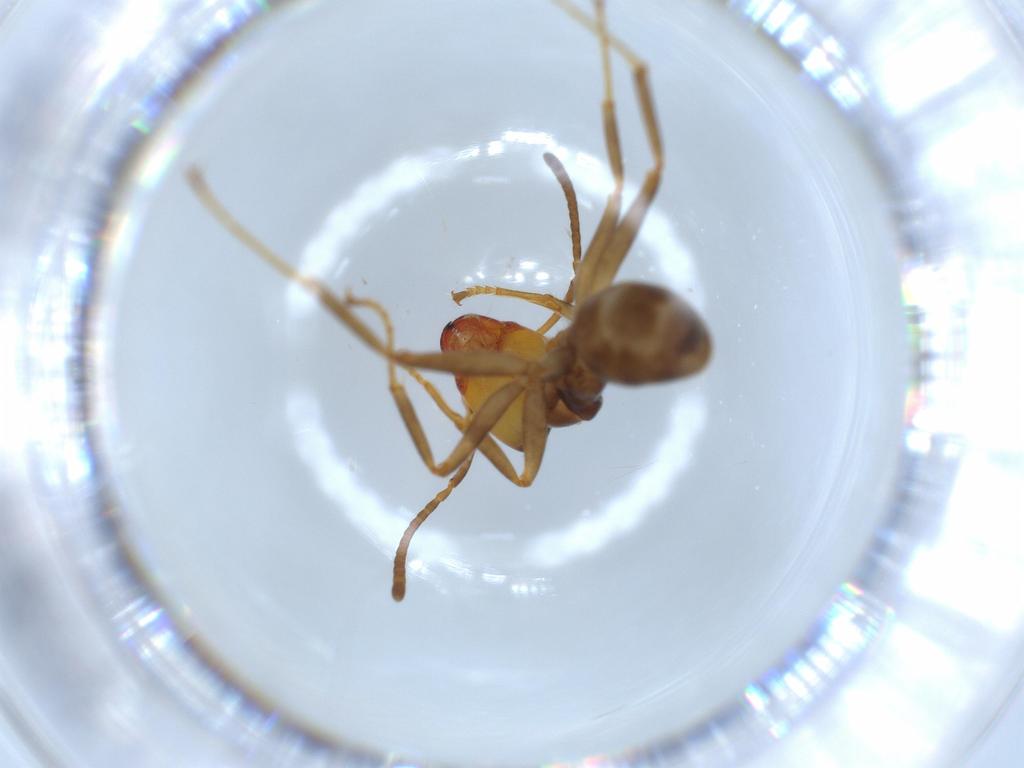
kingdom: Animalia
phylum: Arthropoda
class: Insecta
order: Hymenoptera
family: Formicidae
